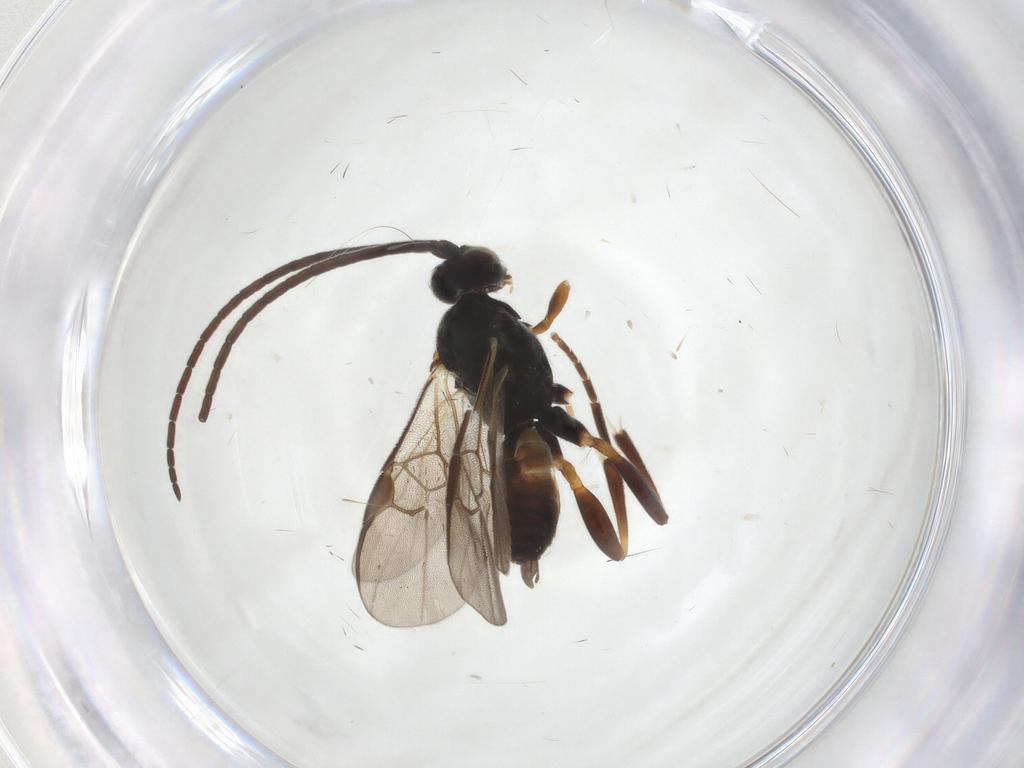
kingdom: Animalia
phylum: Arthropoda
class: Insecta
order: Hymenoptera
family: Braconidae
